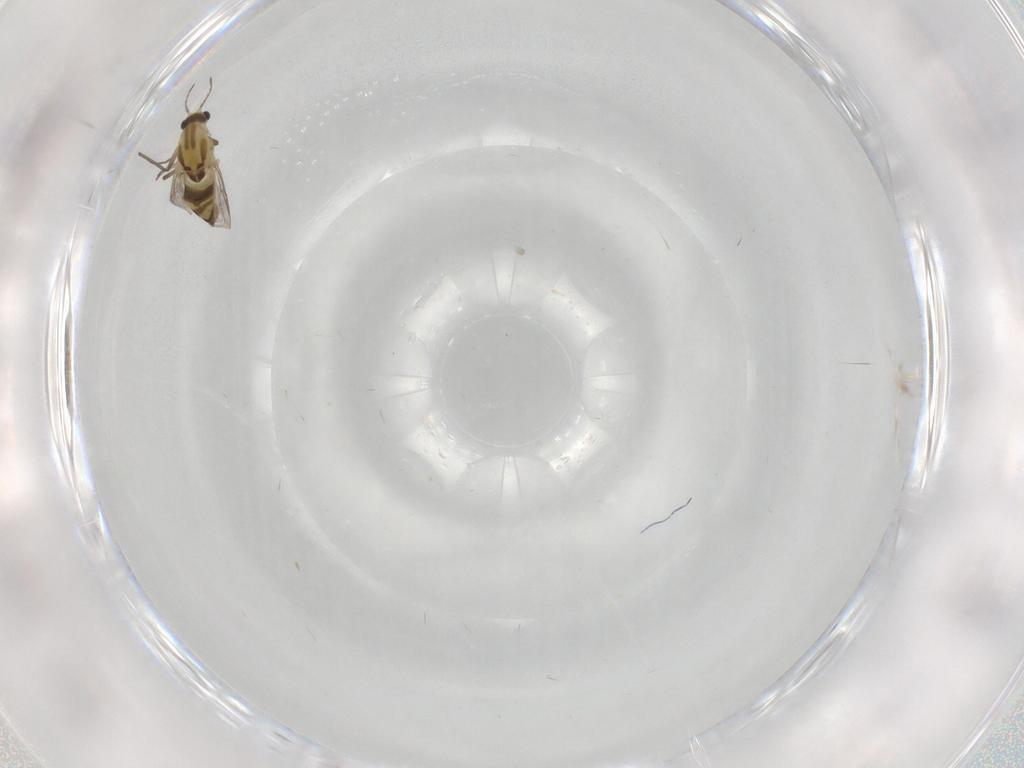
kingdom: Animalia
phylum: Arthropoda
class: Insecta
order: Diptera
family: Chironomidae
